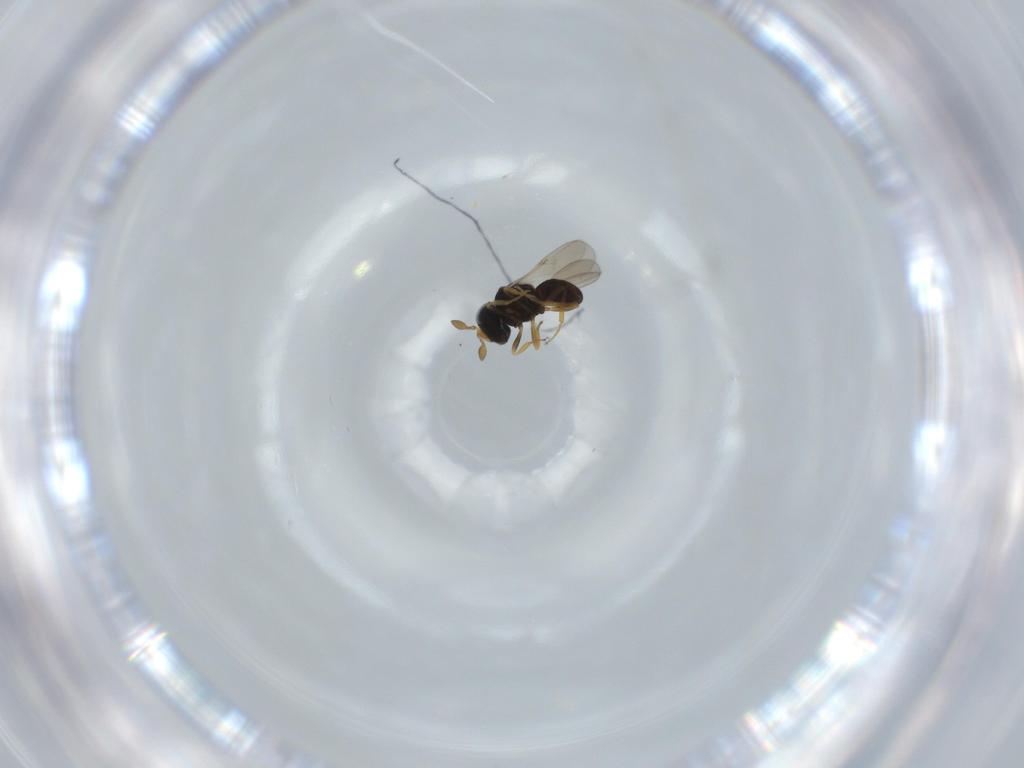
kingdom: Animalia
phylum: Arthropoda
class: Insecta
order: Hymenoptera
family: Scelionidae
